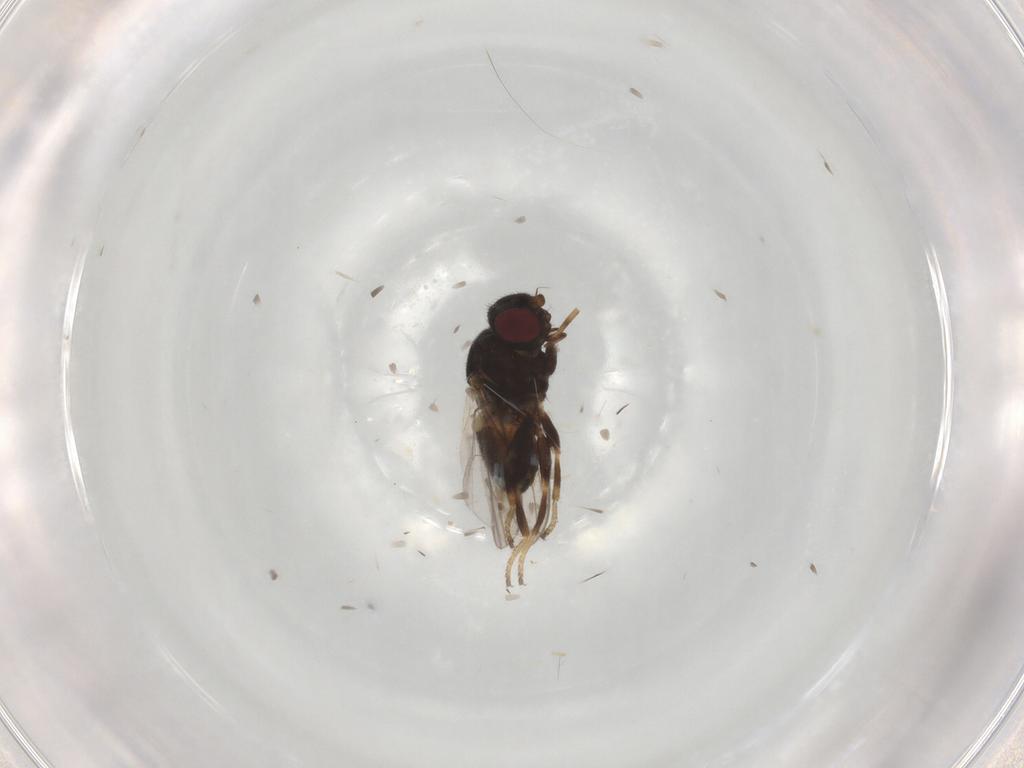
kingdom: Animalia
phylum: Arthropoda
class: Insecta
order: Diptera
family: Chloropidae
